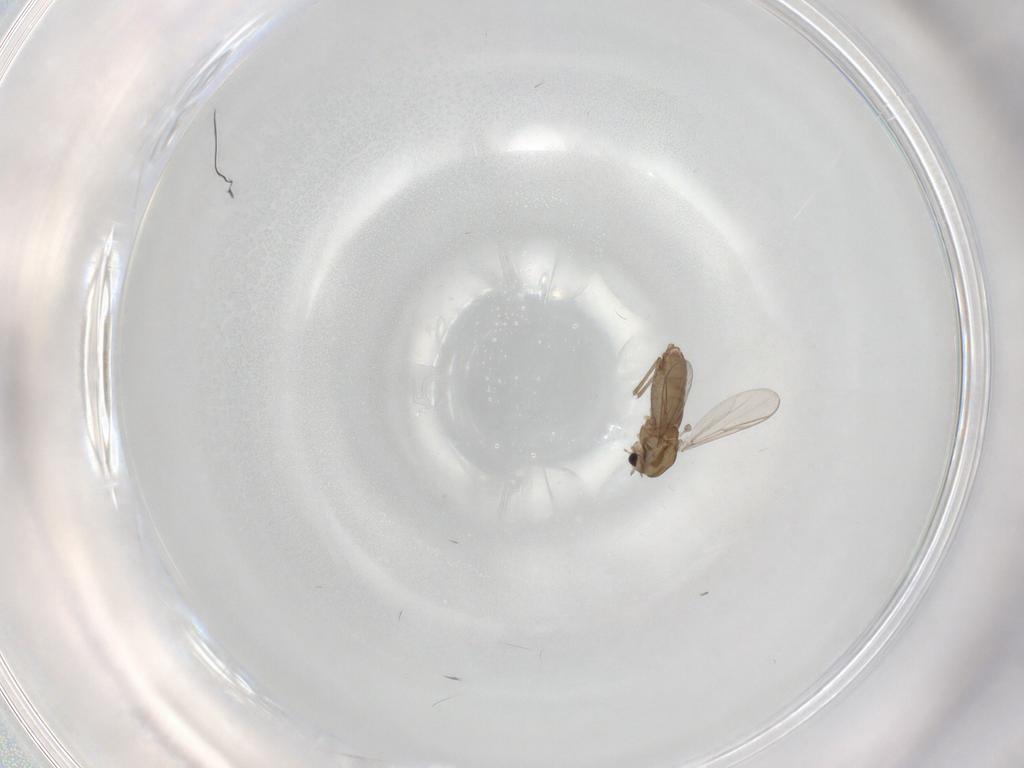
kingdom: Animalia
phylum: Arthropoda
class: Insecta
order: Diptera
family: Chironomidae
